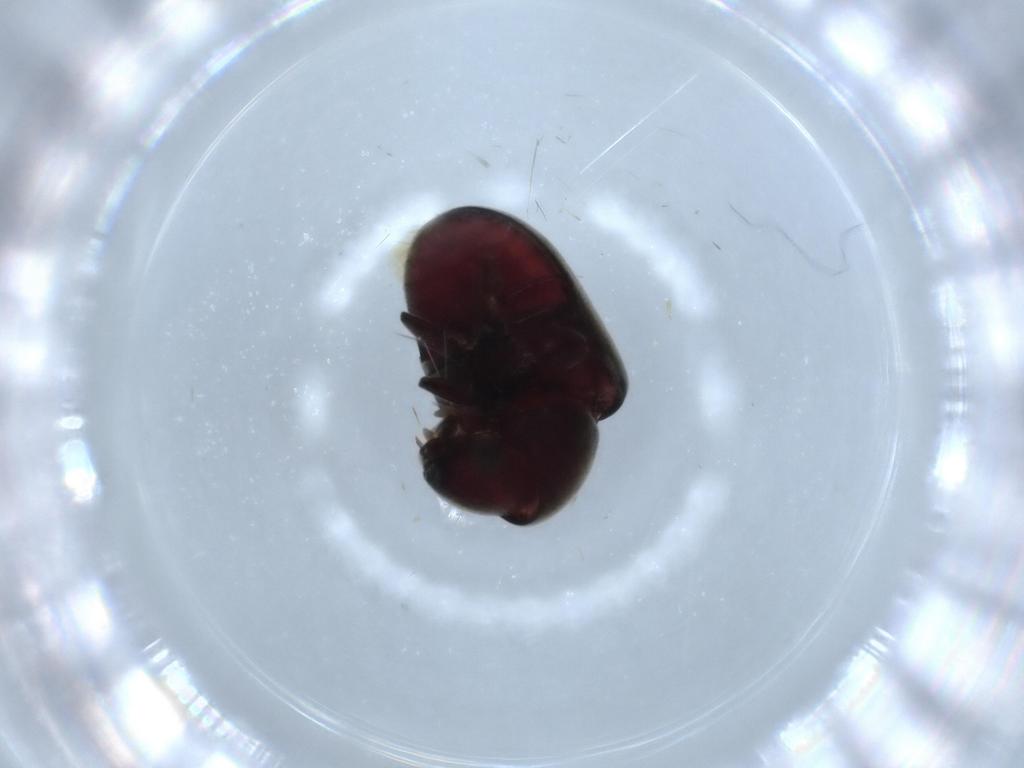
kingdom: Animalia
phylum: Arthropoda
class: Insecta
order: Coleoptera
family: Ptinidae
